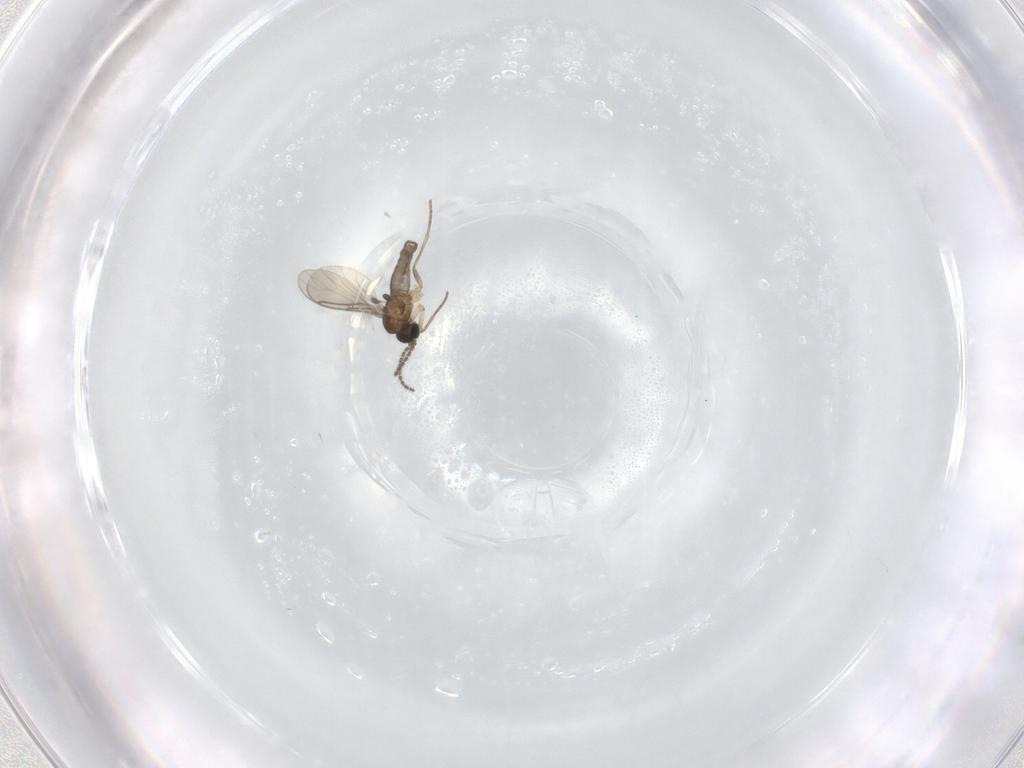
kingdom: Animalia
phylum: Arthropoda
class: Insecta
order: Diptera
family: Sciaridae
